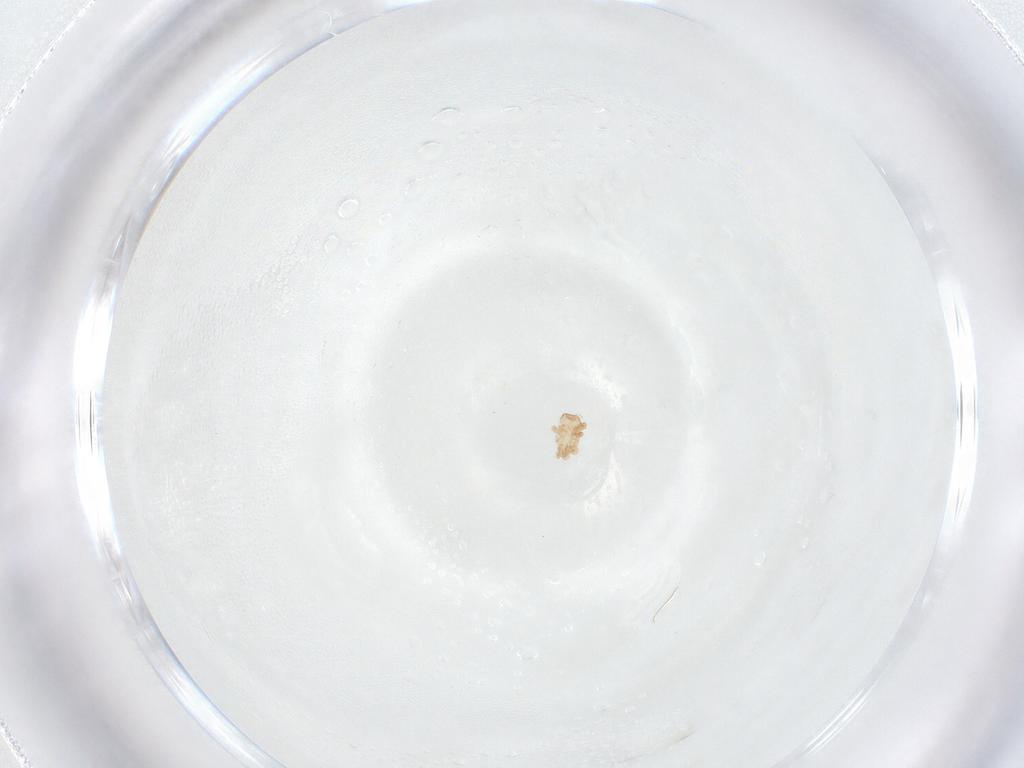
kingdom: Animalia
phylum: Arthropoda
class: Arachnida
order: Mesostigmata
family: Halolaelapidae
